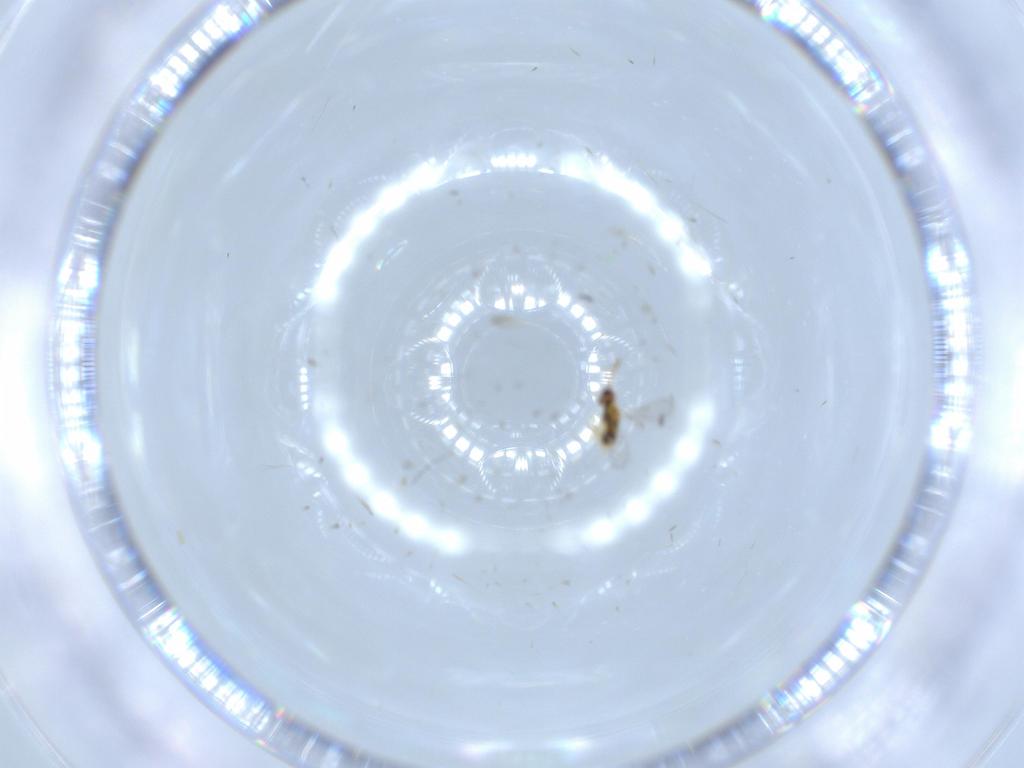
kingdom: Animalia
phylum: Arthropoda
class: Insecta
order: Hymenoptera
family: Aphelinidae
